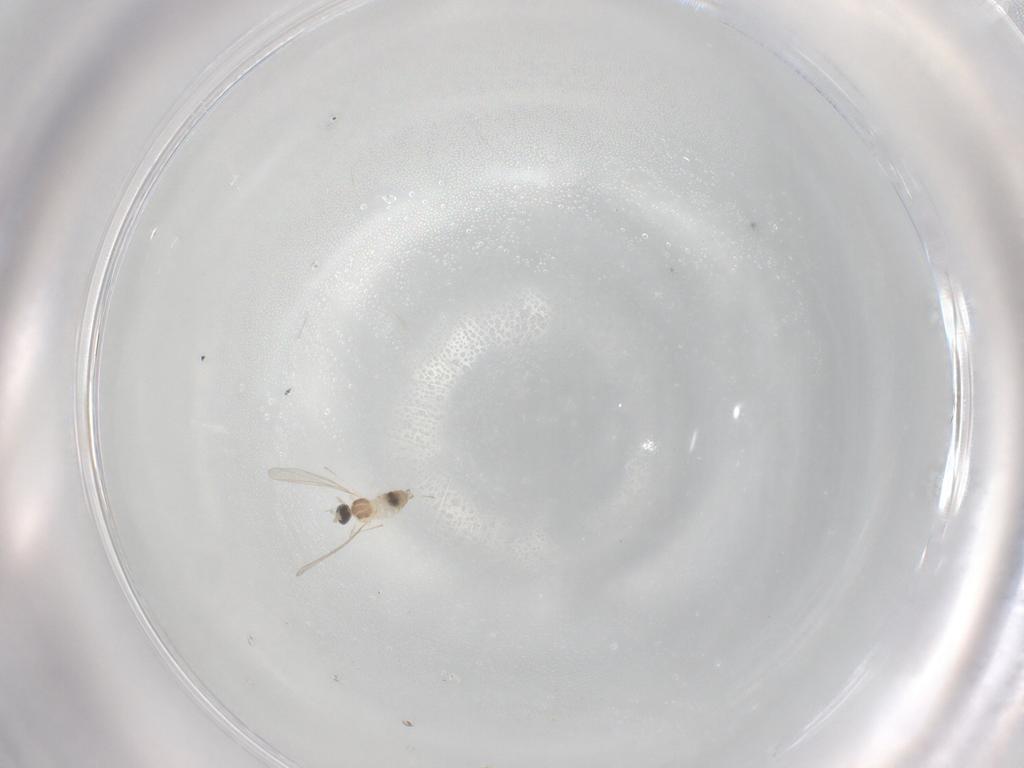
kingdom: Animalia
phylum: Arthropoda
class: Insecta
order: Diptera
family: Cecidomyiidae
